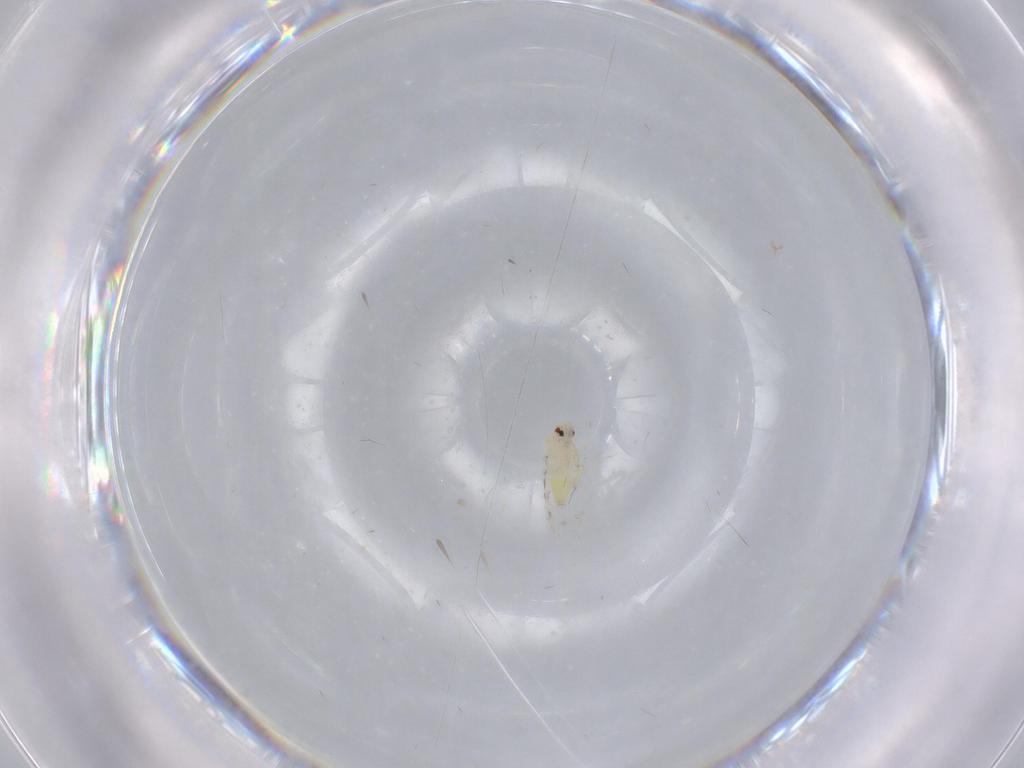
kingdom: Animalia
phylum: Arthropoda
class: Insecta
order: Hemiptera
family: Aleyrodidae
